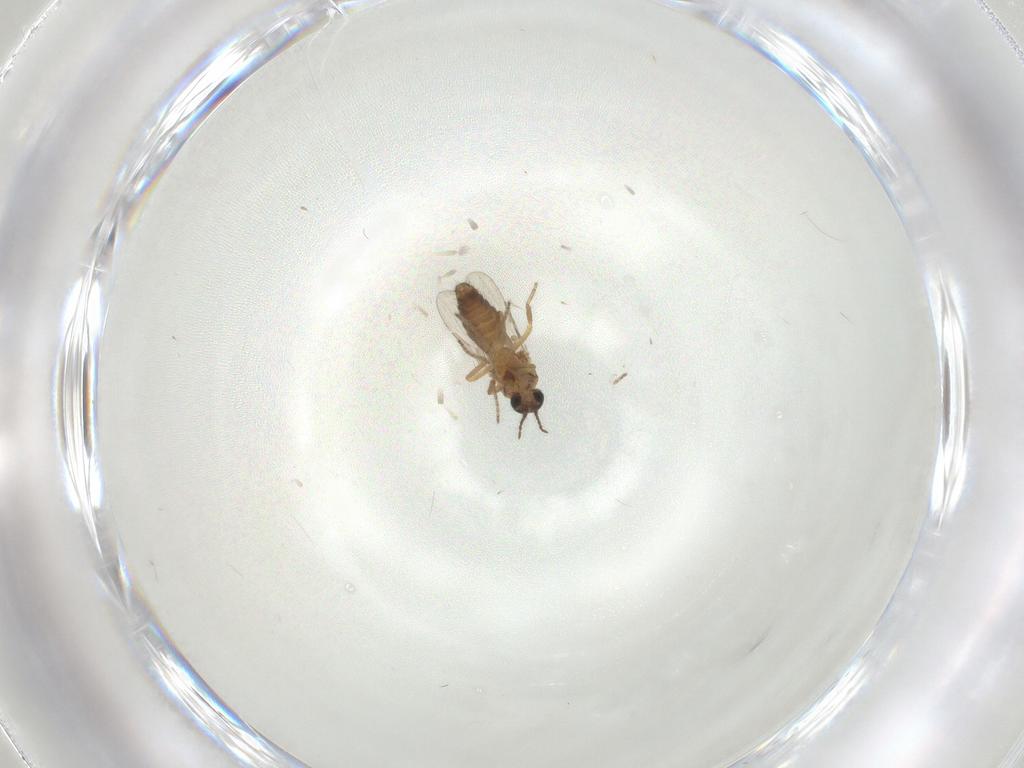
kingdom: Animalia
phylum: Arthropoda
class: Insecta
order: Diptera
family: Ceratopogonidae
